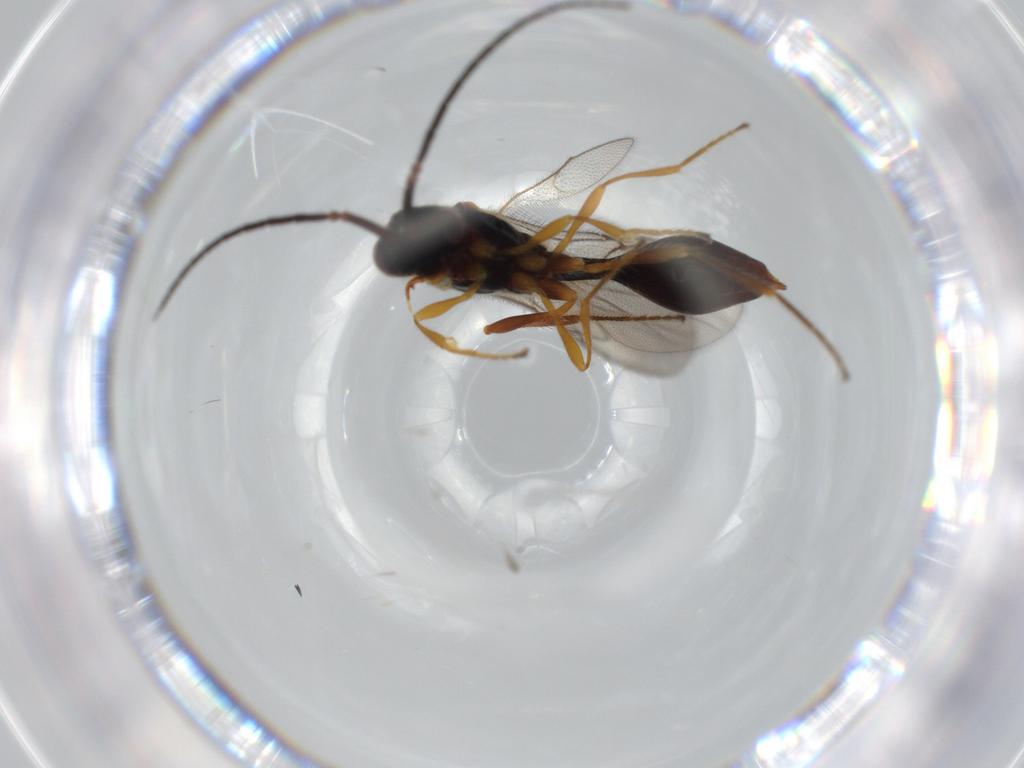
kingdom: Animalia
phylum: Arthropoda
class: Insecta
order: Hymenoptera
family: Diapriidae
